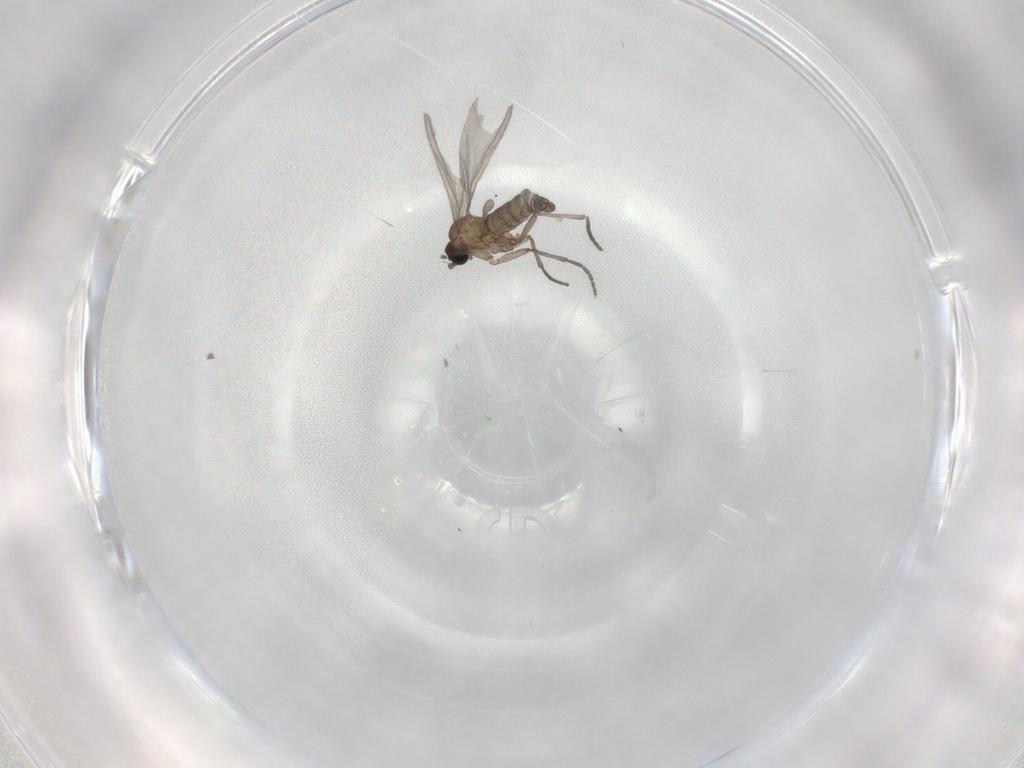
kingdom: Animalia
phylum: Arthropoda
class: Insecta
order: Diptera
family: Sciaridae
